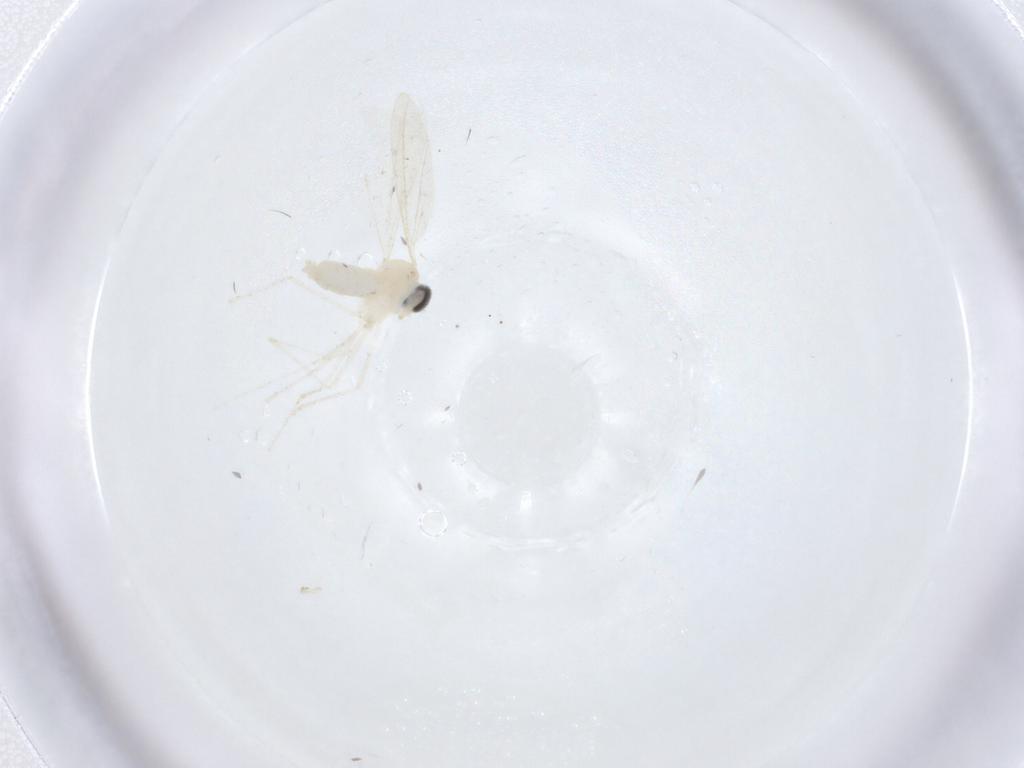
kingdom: Animalia
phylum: Arthropoda
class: Insecta
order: Diptera
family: Cecidomyiidae
